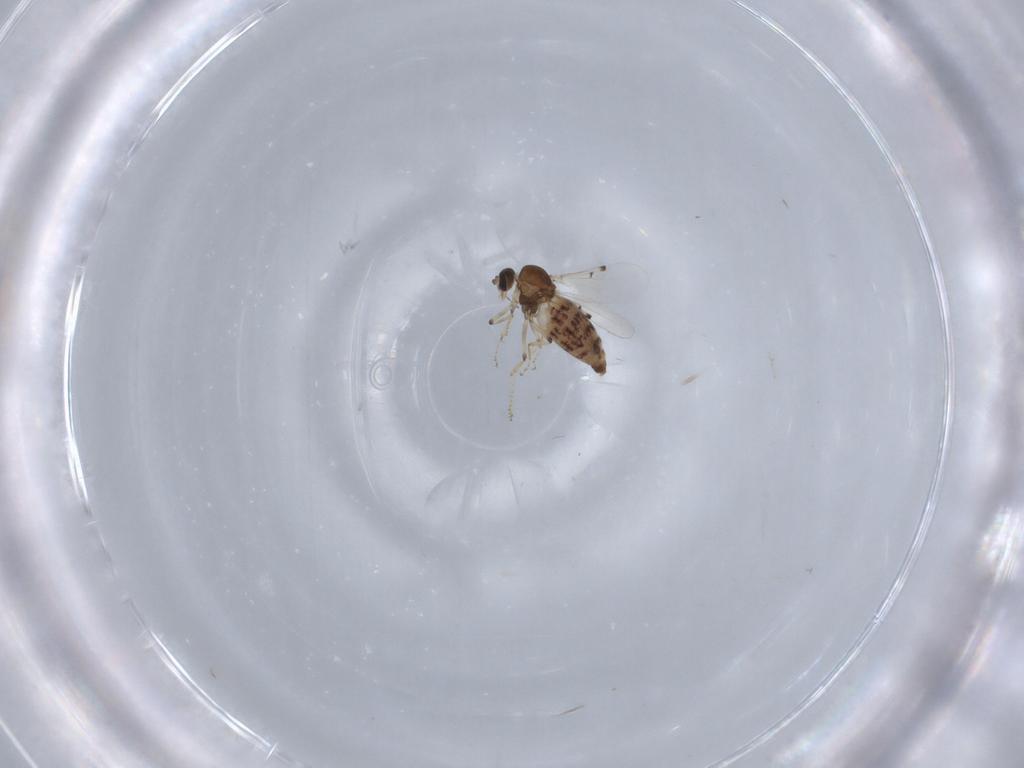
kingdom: Animalia
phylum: Arthropoda
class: Insecta
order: Diptera
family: Ceratopogonidae
